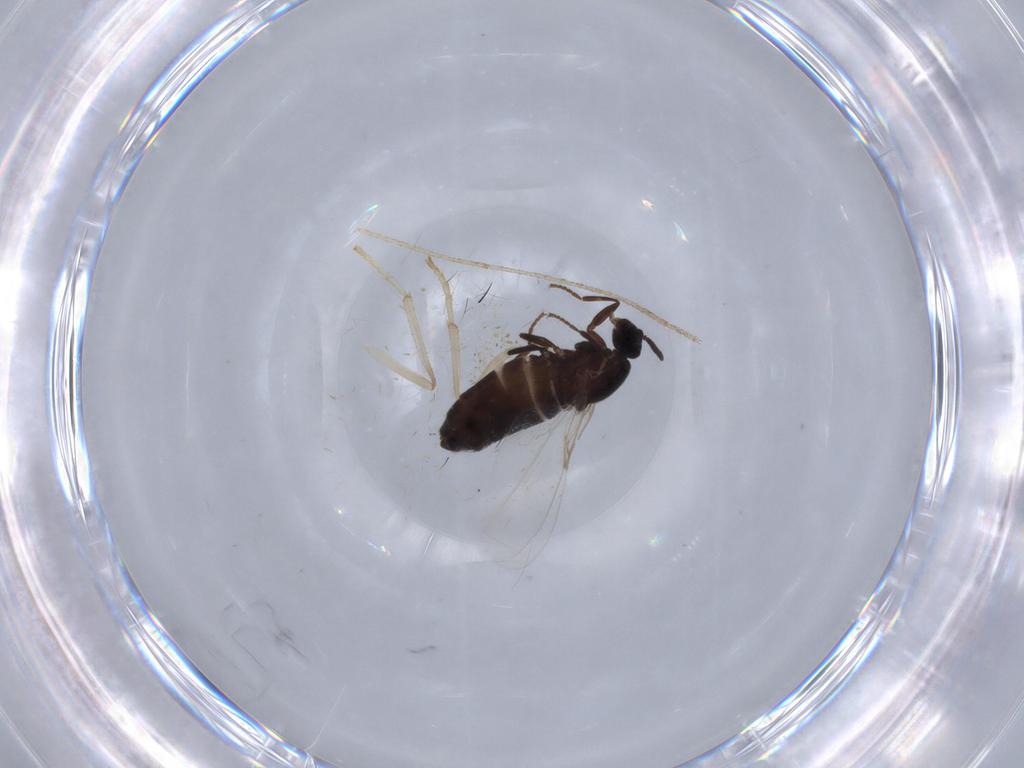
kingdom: Animalia
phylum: Arthropoda
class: Insecta
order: Diptera
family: Scatopsidae
